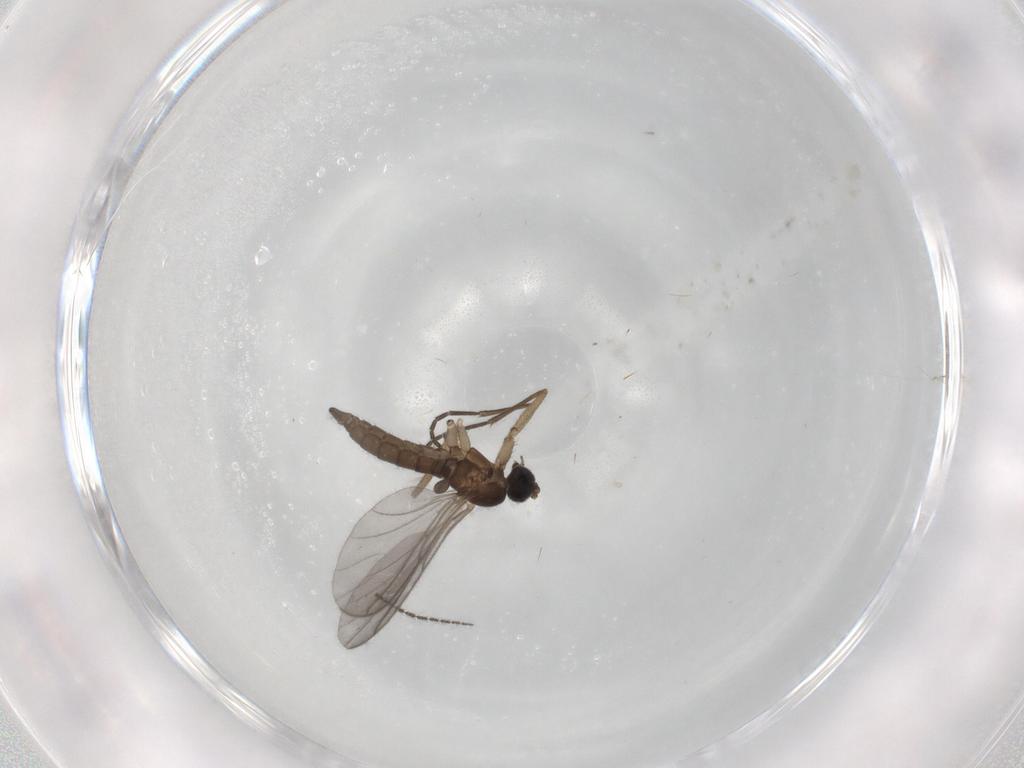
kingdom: Animalia
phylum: Arthropoda
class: Insecta
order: Diptera
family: Sciaridae
